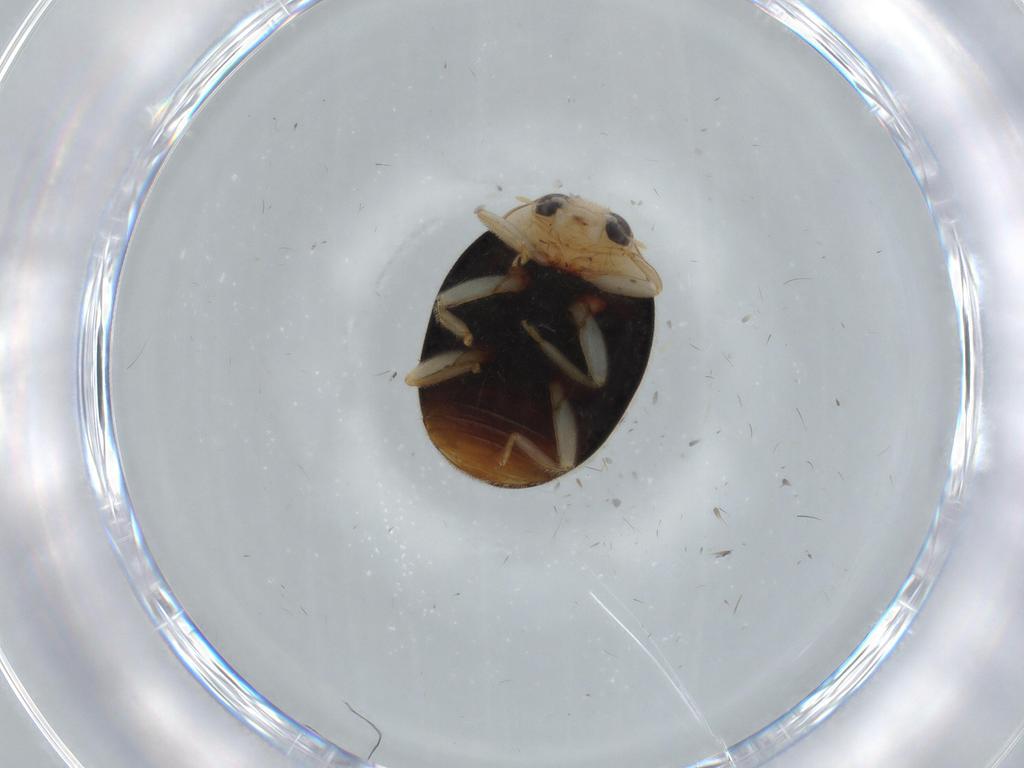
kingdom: Animalia
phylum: Arthropoda
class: Insecta
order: Coleoptera
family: Coccinellidae
